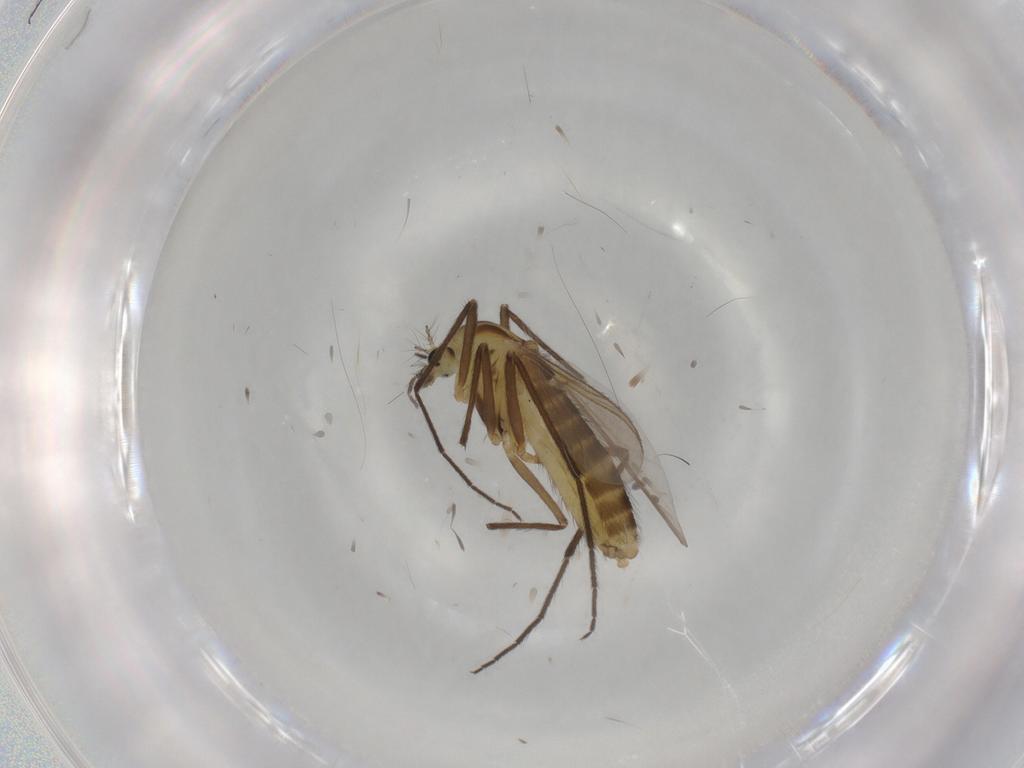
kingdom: Animalia
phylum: Arthropoda
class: Insecta
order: Diptera
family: Chironomidae
